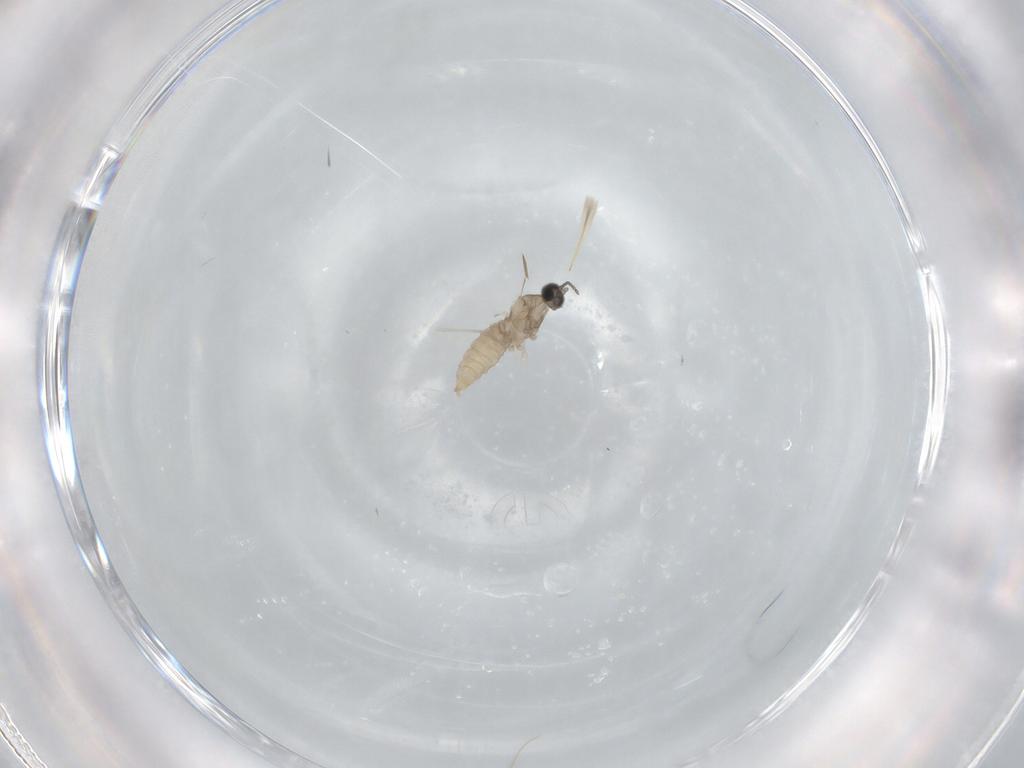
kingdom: Animalia
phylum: Arthropoda
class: Insecta
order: Diptera
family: Cecidomyiidae
